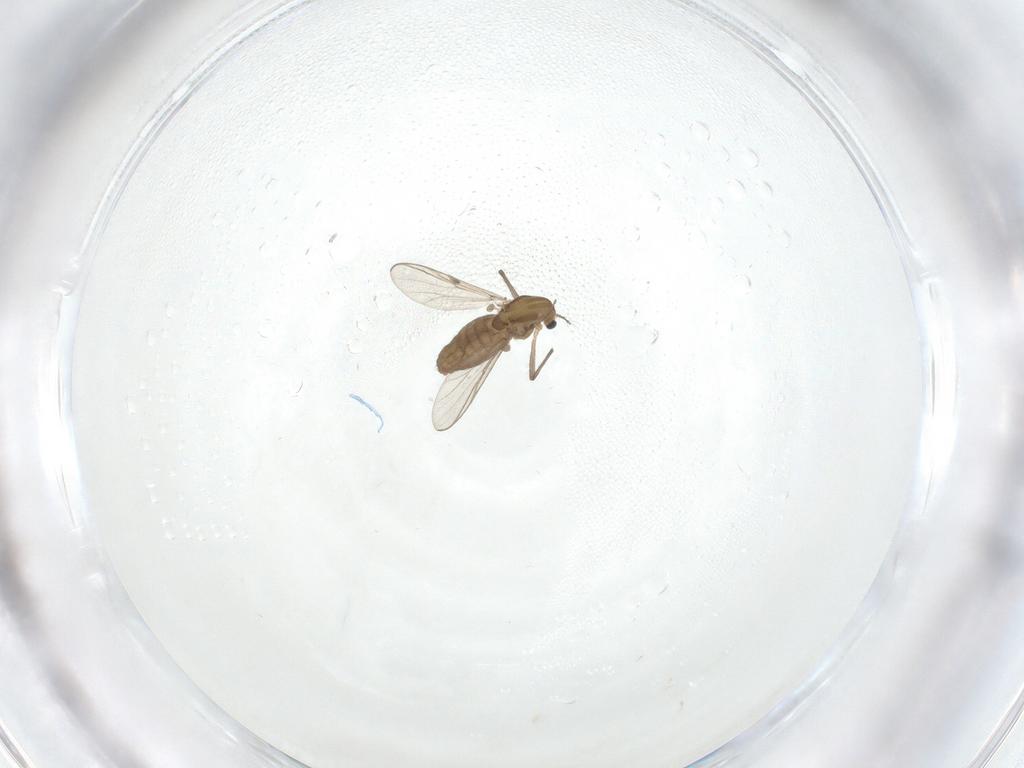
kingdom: Animalia
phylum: Arthropoda
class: Insecta
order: Diptera
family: Chironomidae
